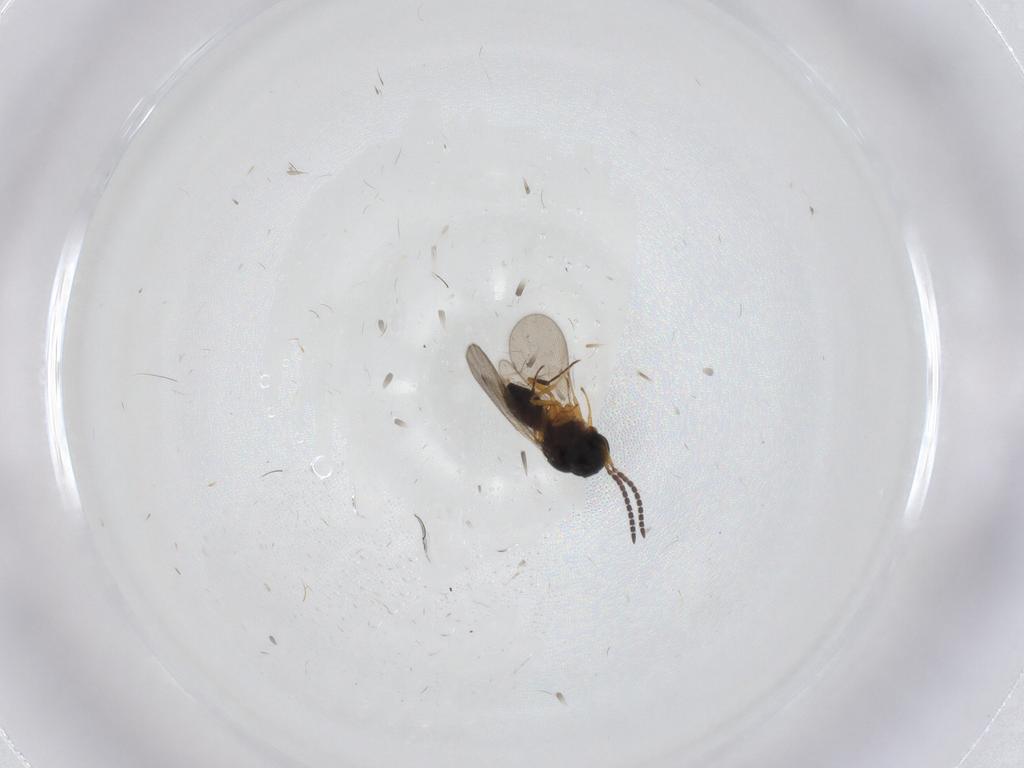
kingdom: Animalia
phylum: Arthropoda
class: Insecta
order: Hymenoptera
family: Scelionidae
